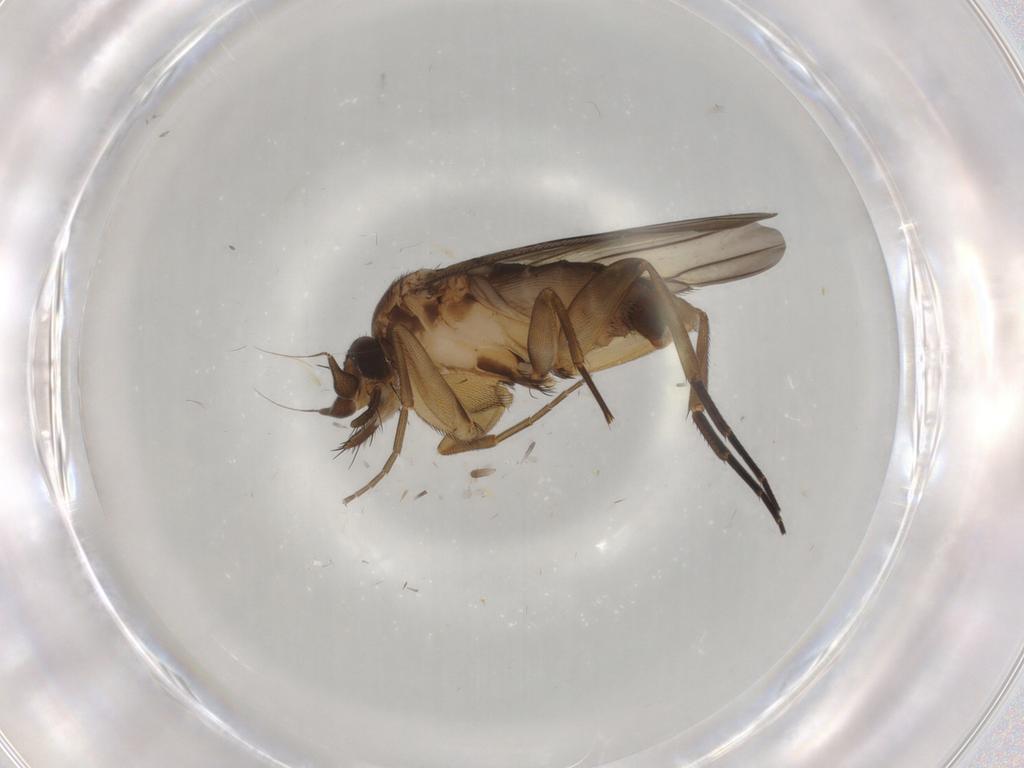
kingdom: Animalia
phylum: Arthropoda
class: Insecta
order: Diptera
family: Phoridae
